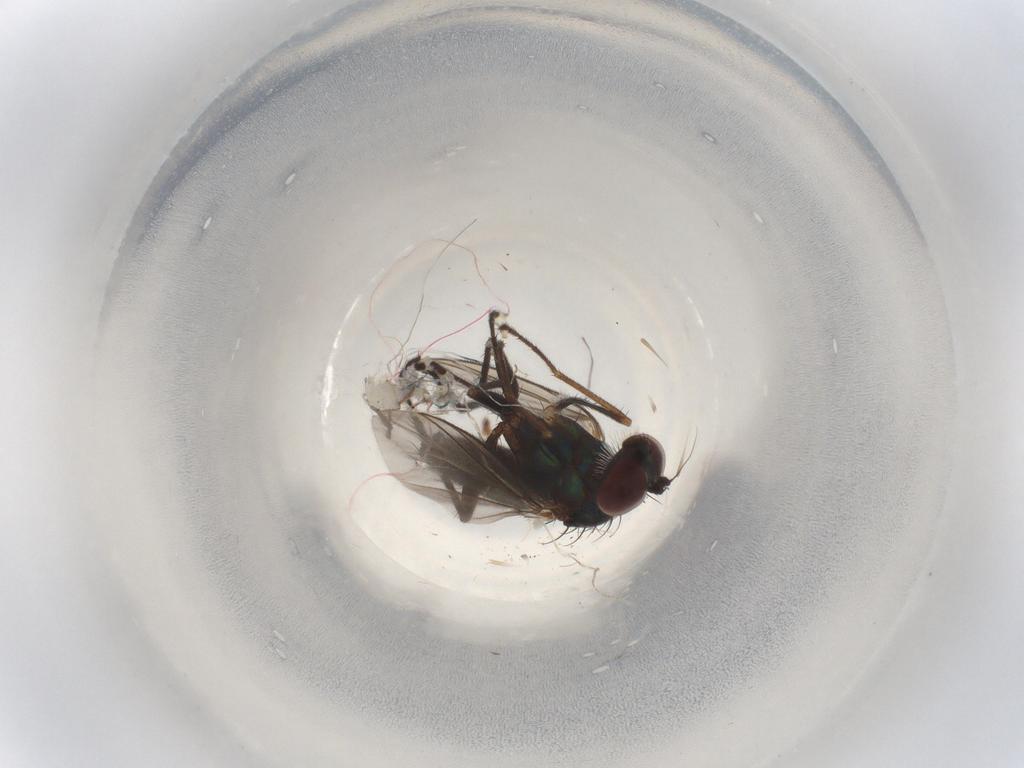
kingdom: Animalia
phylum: Arthropoda
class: Insecta
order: Diptera
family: Dolichopodidae
